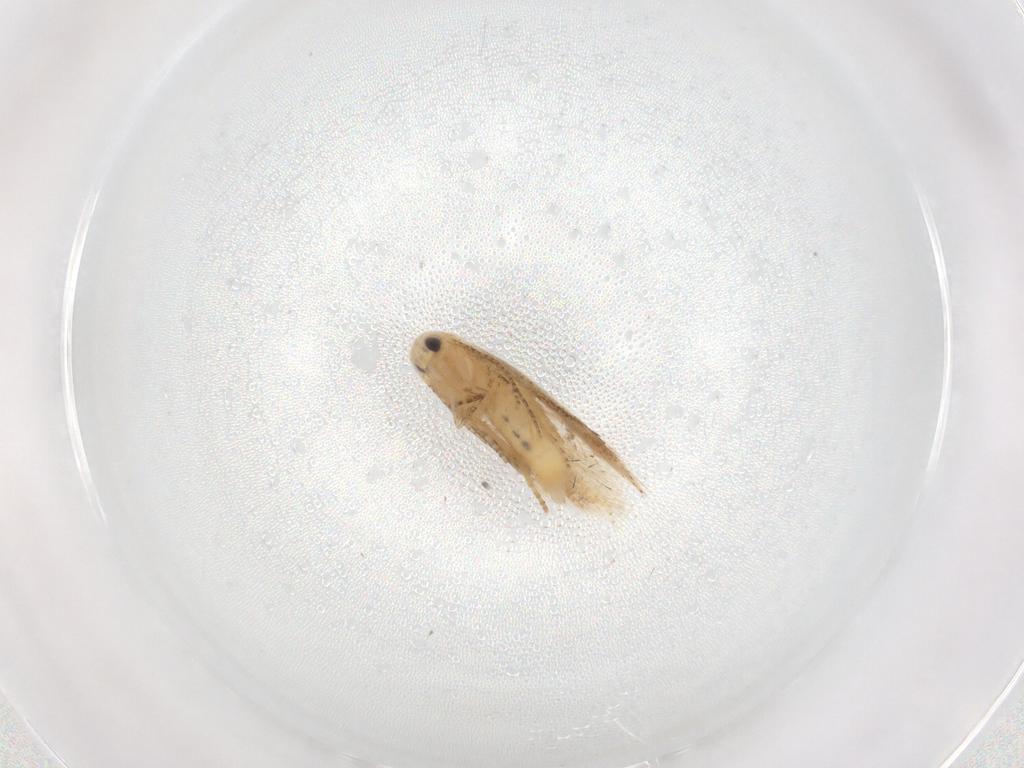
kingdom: Animalia
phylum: Arthropoda
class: Insecta
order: Lepidoptera
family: Depressariidae
